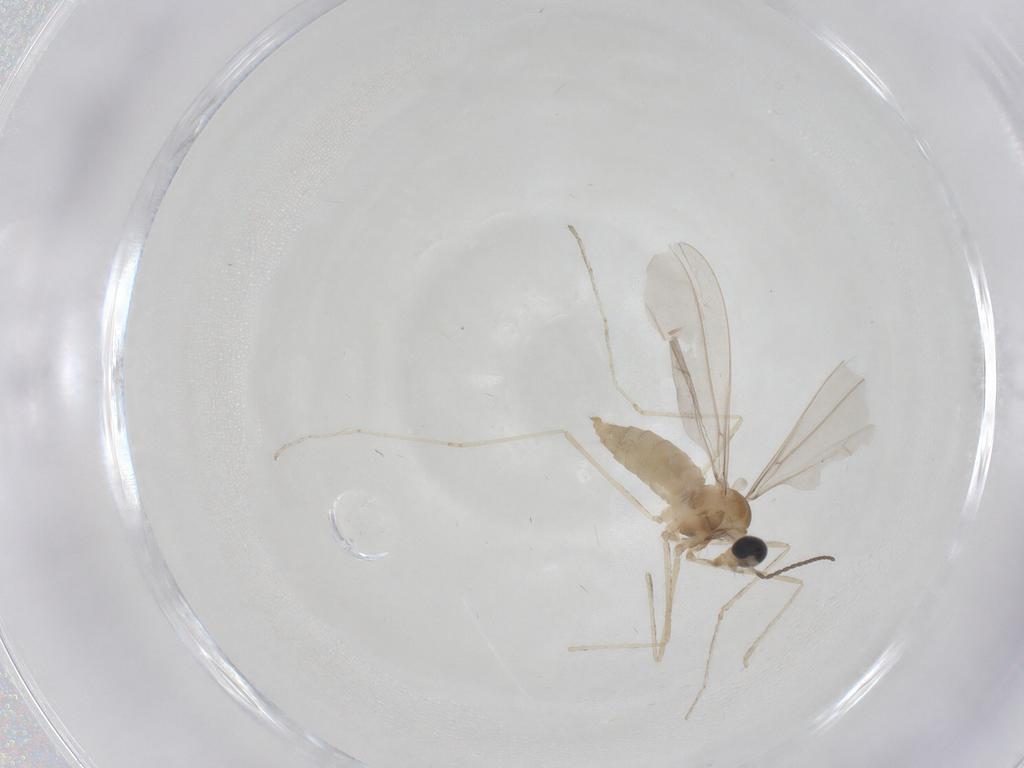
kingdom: Animalia
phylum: Arthropoda
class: Insecta
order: Diptera
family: Cecidomyiidae
